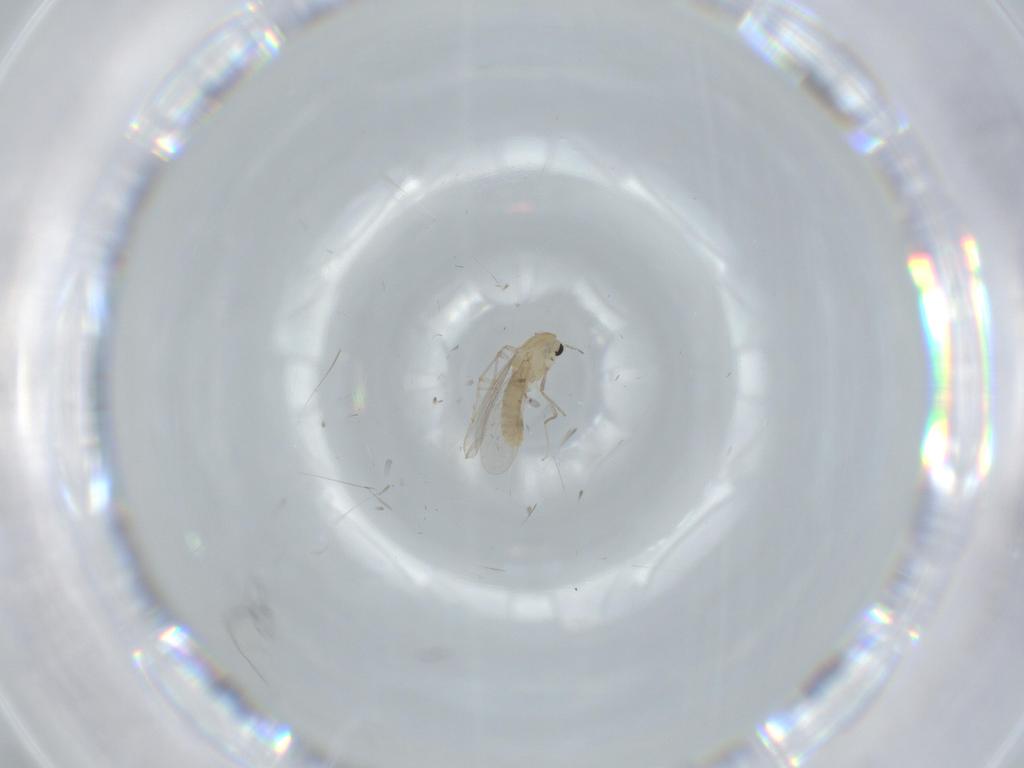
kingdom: Animalia
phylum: Arthropoda
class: Insecta
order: Diptera
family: Chironomidae
